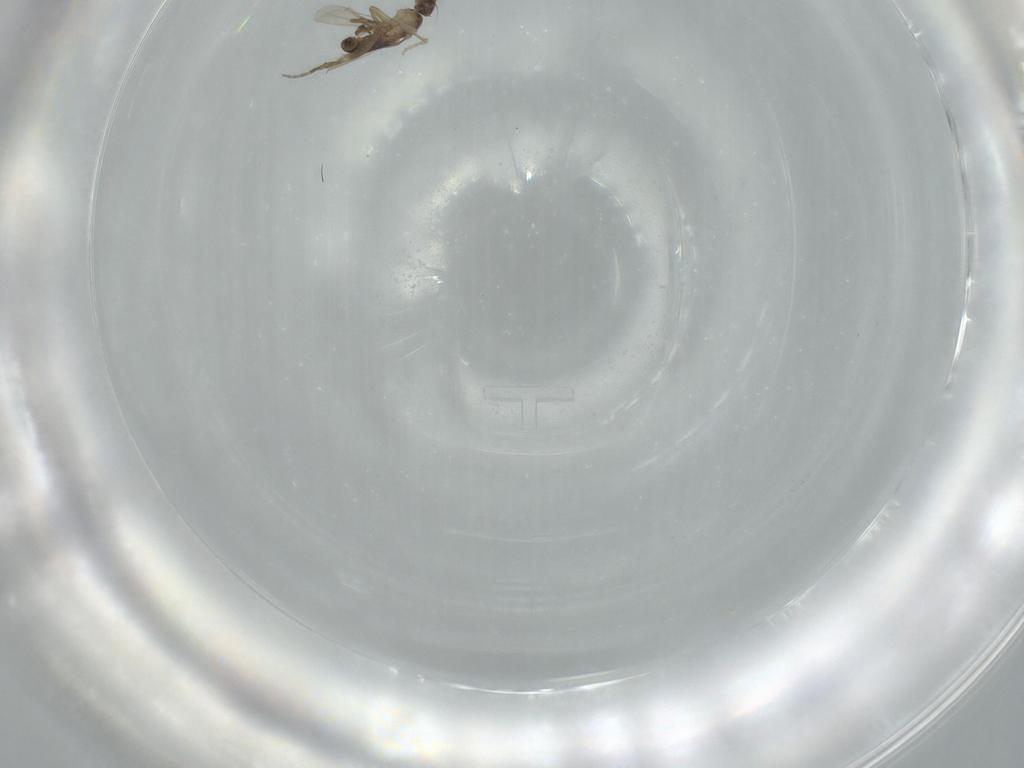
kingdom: Animalia
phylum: Arthropoda
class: Insecta
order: Diptera
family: Phoridae
